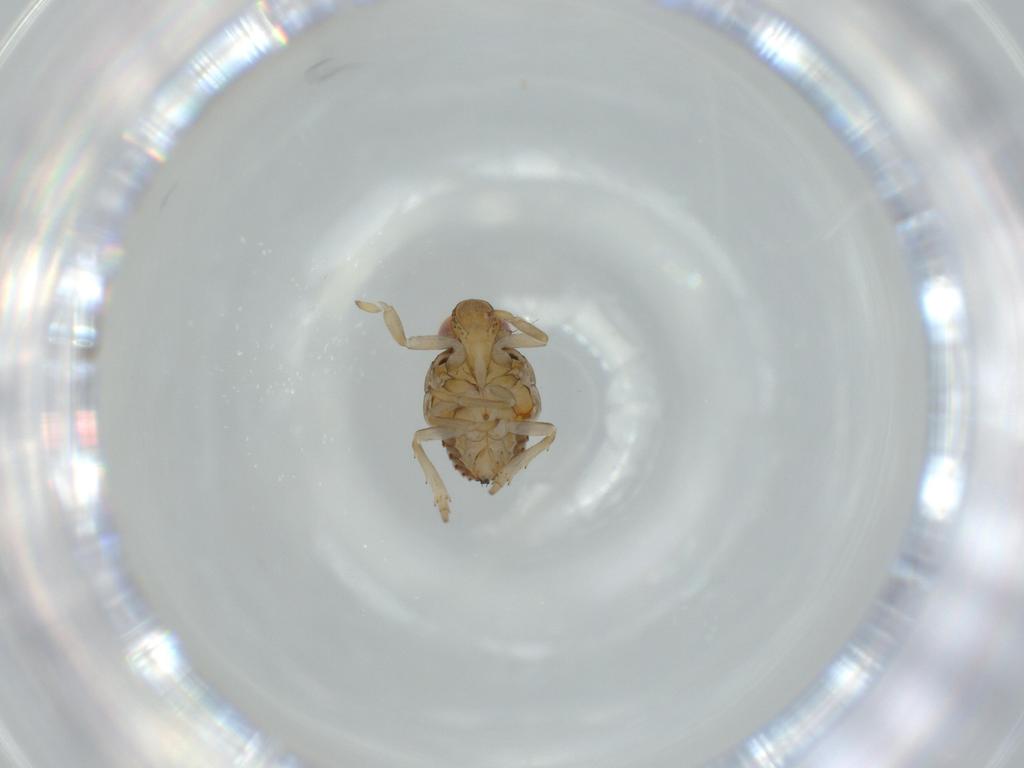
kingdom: Animalia
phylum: Arthropoda
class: Insecta
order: Hemiptera
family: Issidae
